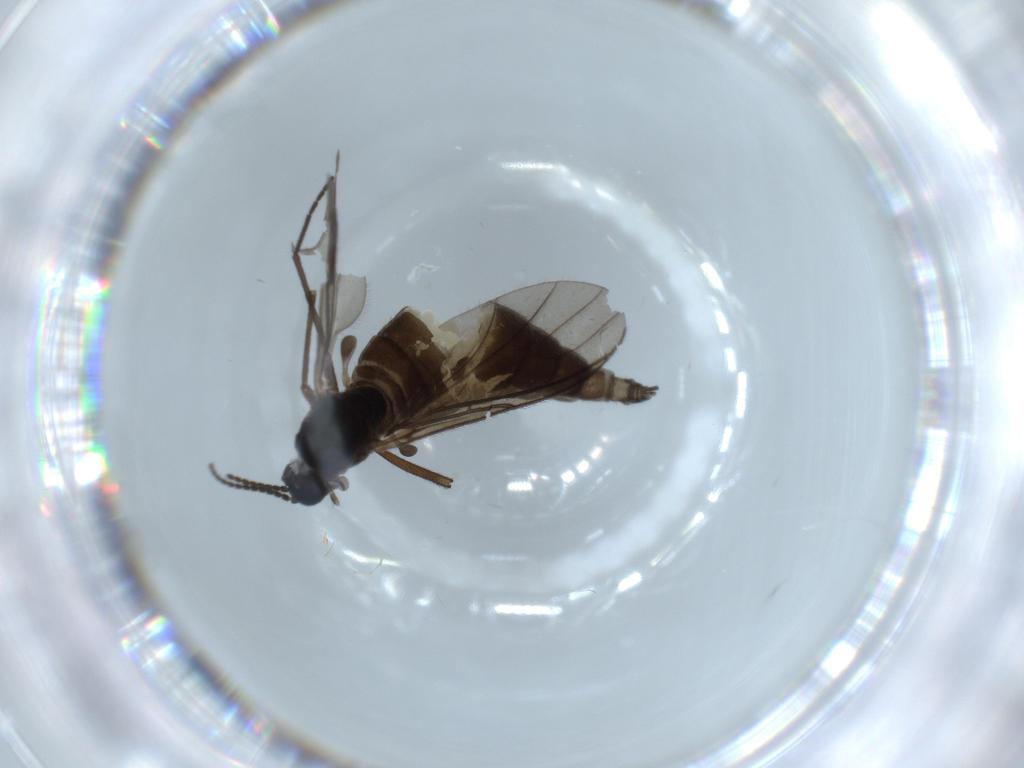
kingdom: Animalia
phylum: Arthropoda
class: Insecta
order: Diptera
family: Sciaridae
